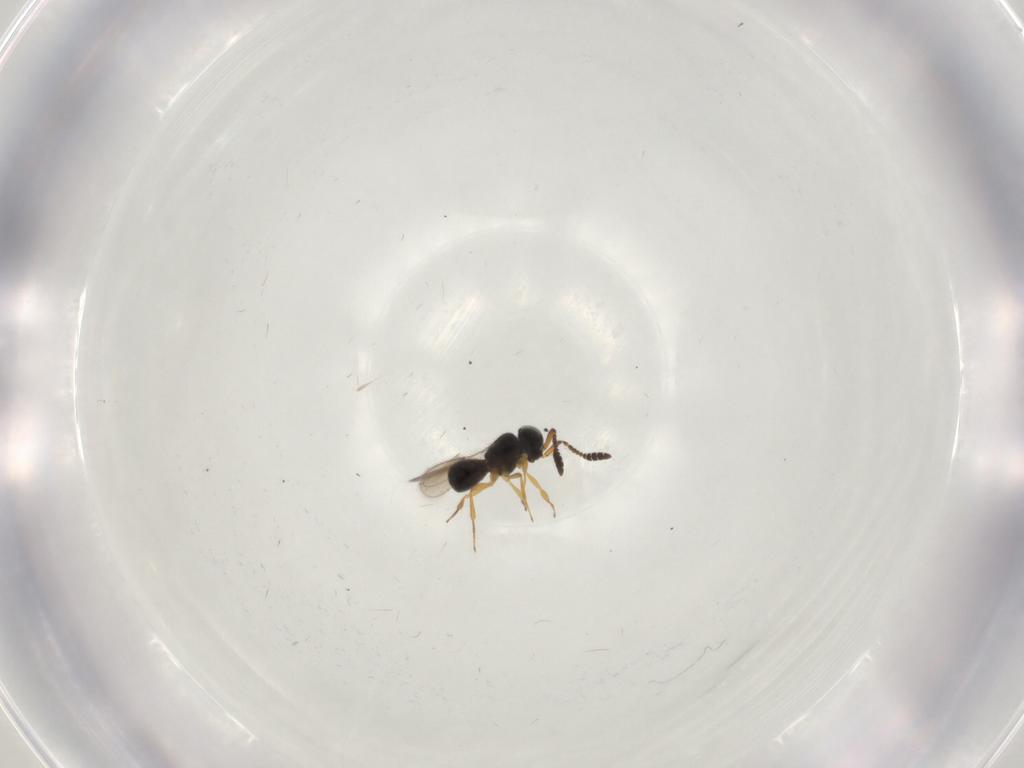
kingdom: Animalia
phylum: Arthropoda
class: Insecta
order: Hymenoptera
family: Scelionidae
